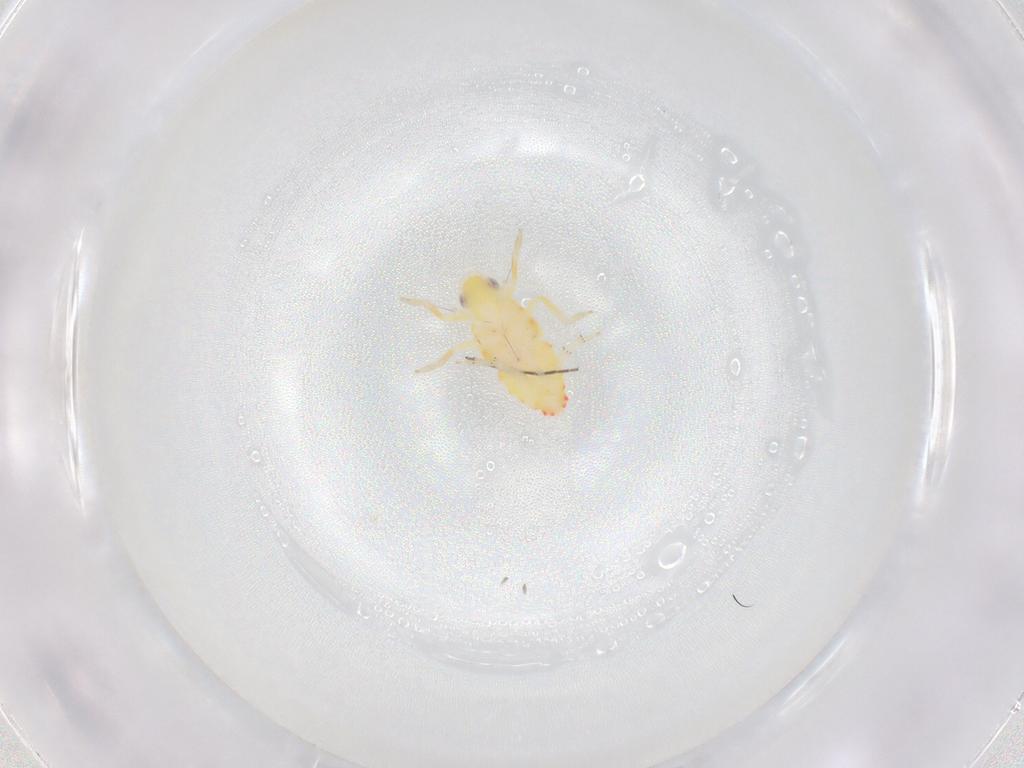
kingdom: Animalia
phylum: Arthropoda
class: Insecta
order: Hemiptera
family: Tropiduchidae
